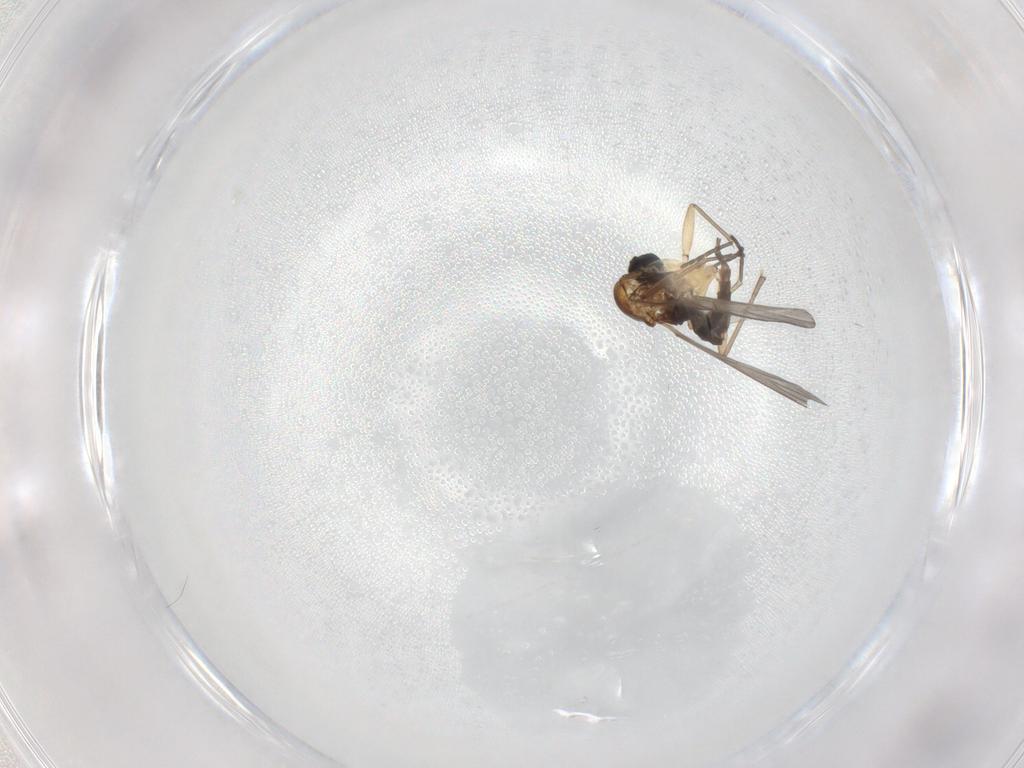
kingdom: Animalia
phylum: Arthropoda
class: Insecta
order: Diptera
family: Sciaridae
